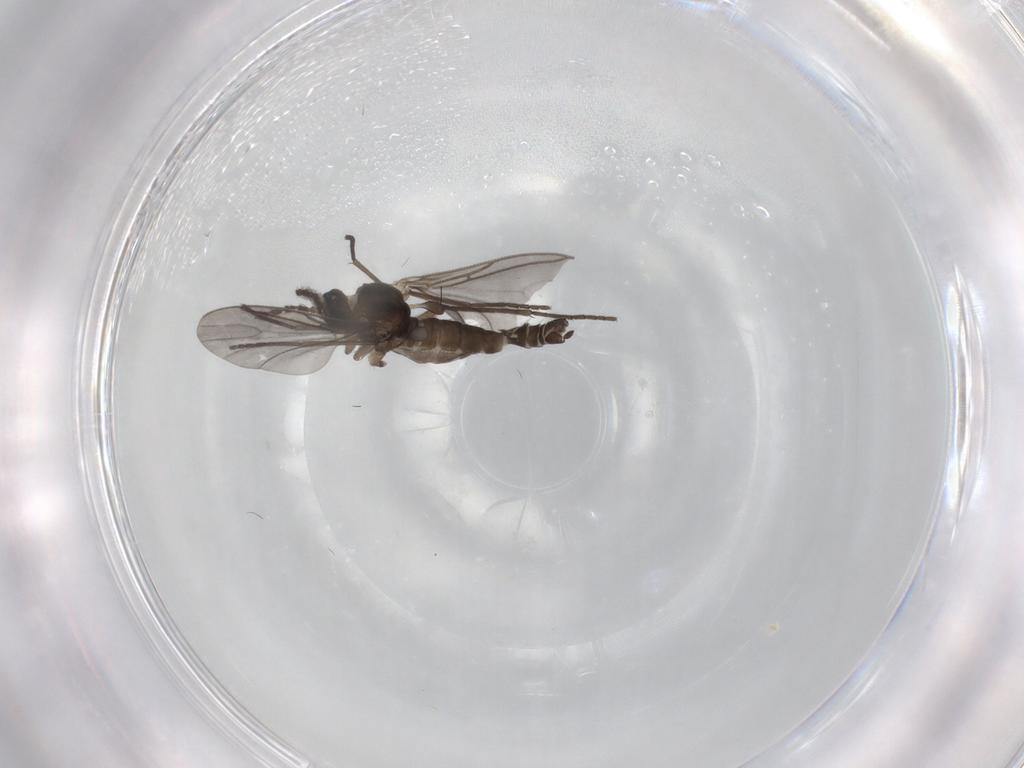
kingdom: Animalia
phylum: Arthropoda
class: Insecta
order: Diptera
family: Sciaridae
